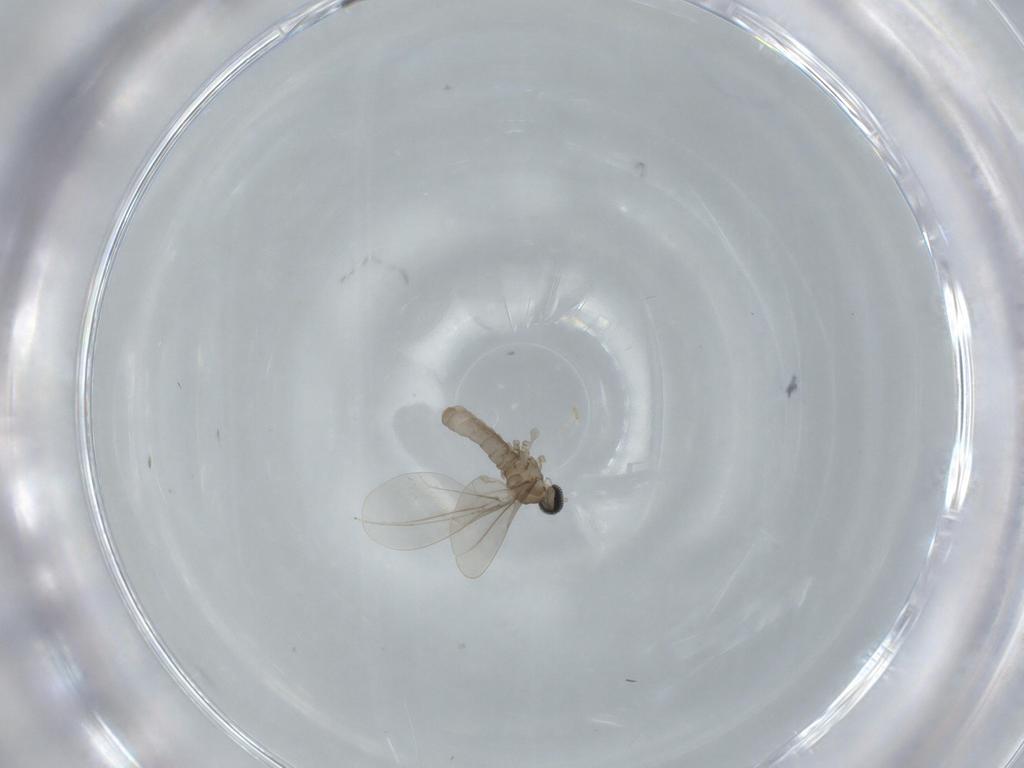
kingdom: Animalia
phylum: Arthropoda
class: Insecta
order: Diptera
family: Cecidomyiidae
